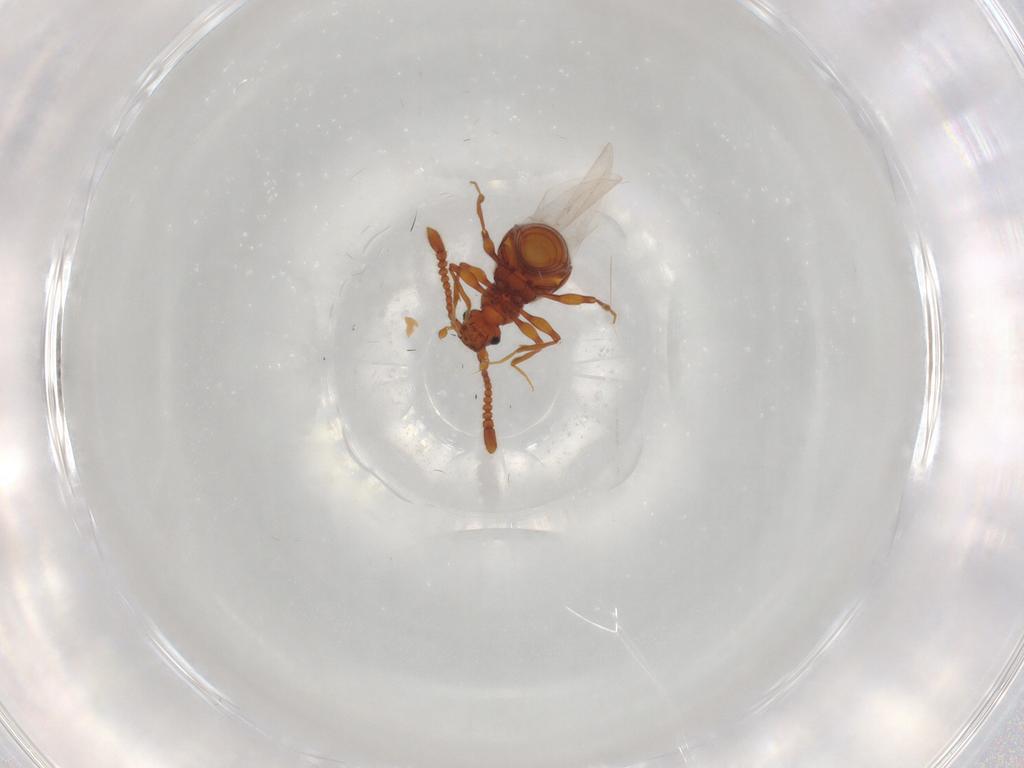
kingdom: Animalia
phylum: Arthropoda
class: Insecta
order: Coleoptera
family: Staphylinidae
